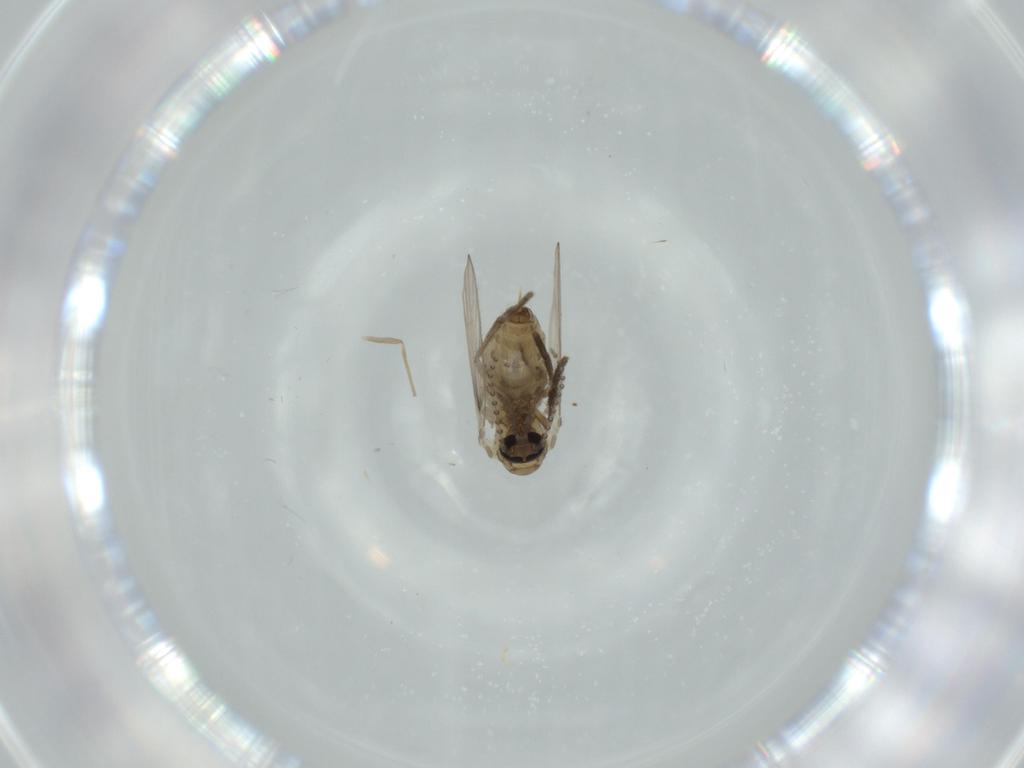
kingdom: Animalia
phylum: Arthropoda
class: Insecta
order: Diptera
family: Psychodidae
